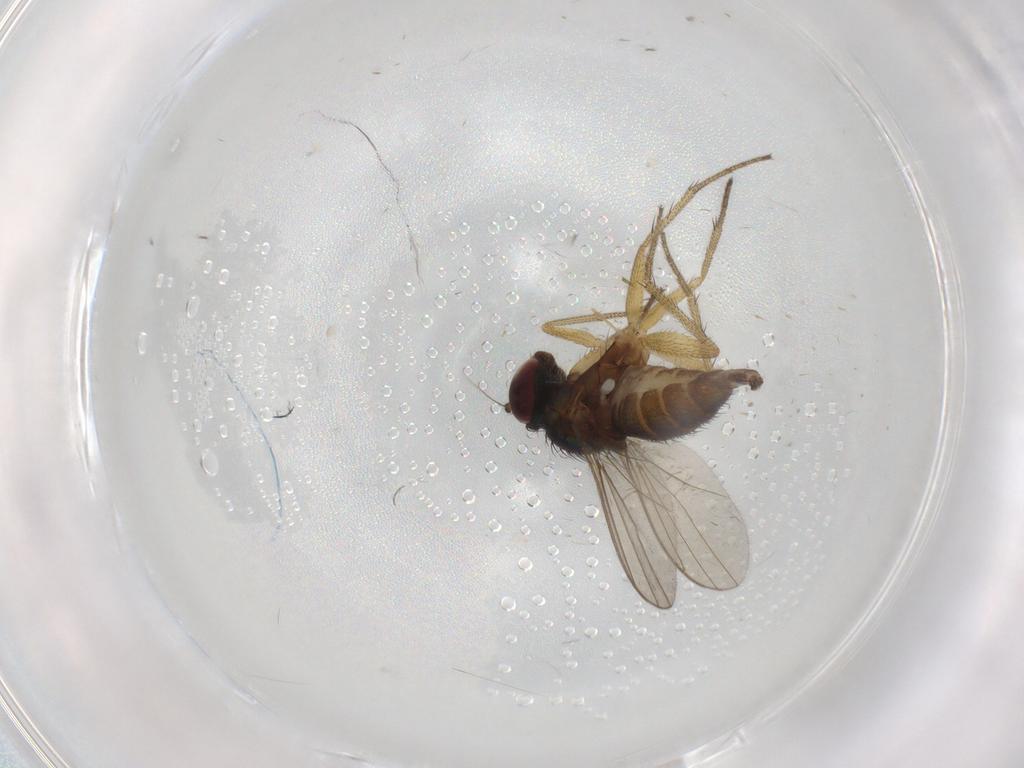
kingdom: Animalia
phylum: Arthropoda
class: Insecta
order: Diptera
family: Dolichopodidae
